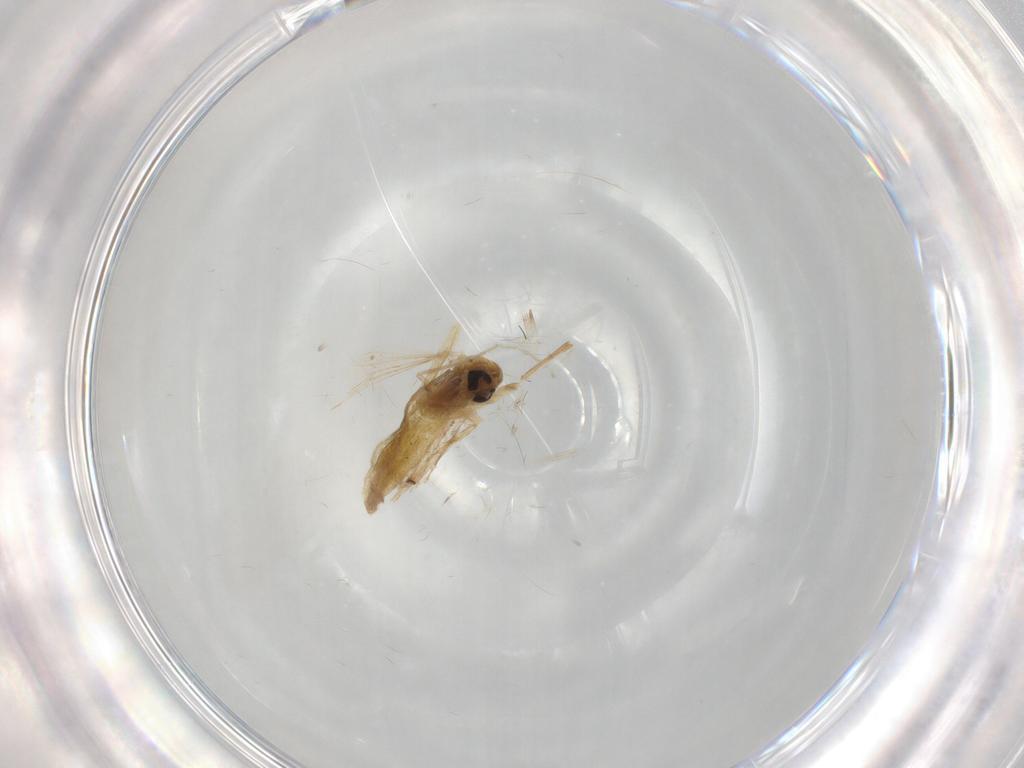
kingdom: Animalia
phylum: Arthropoda
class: Insecta
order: Diptera
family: Chironomidae
